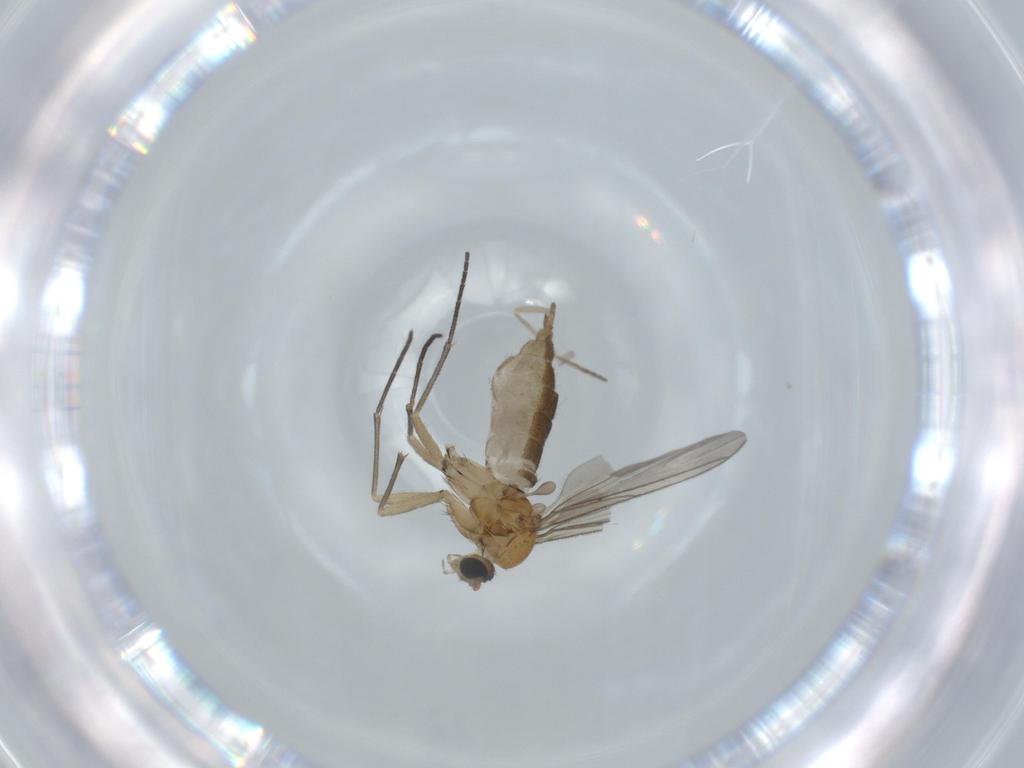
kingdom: Animalia
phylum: Arthropoda
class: Insecta
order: Diptera
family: Sciaridae
